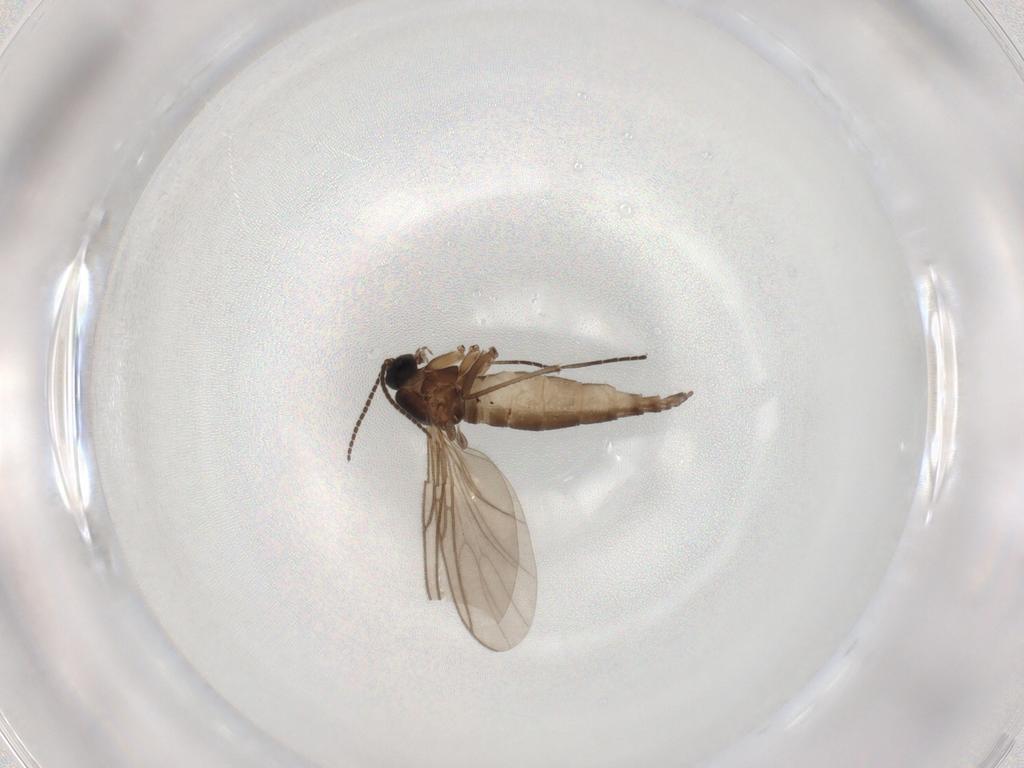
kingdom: Animalia
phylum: Arthropoda
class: Insecta
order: Diptera
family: Sciaridae
